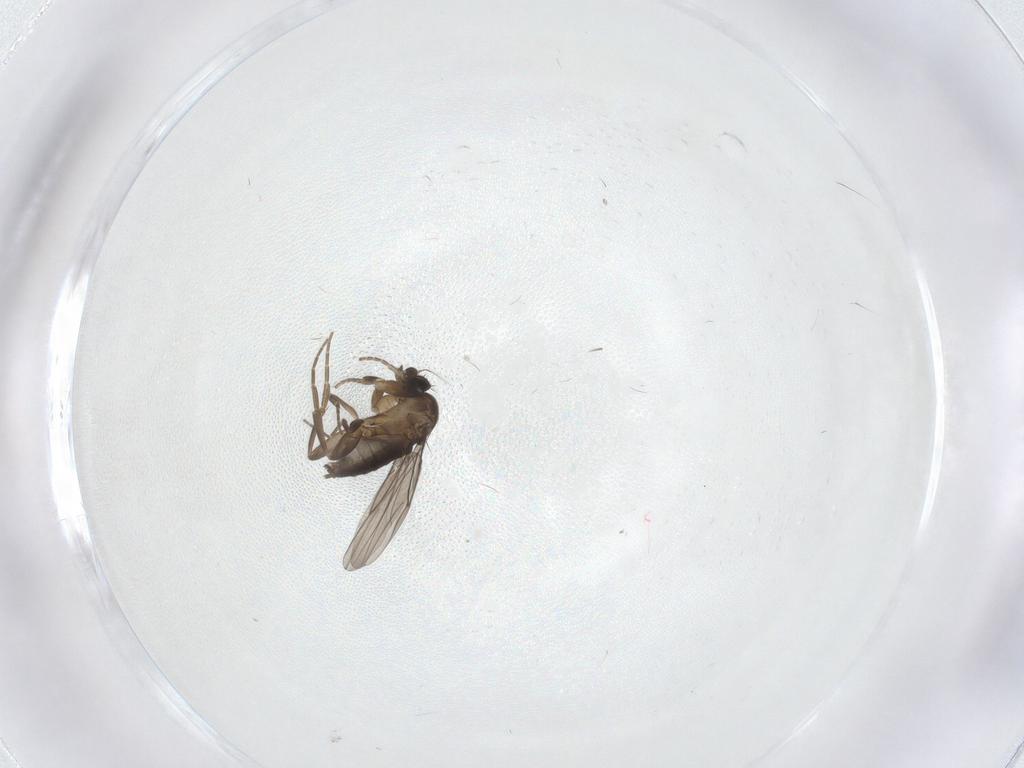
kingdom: Animalia
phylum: Arthropoda
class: Insecta
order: Diptera
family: Phoridae
